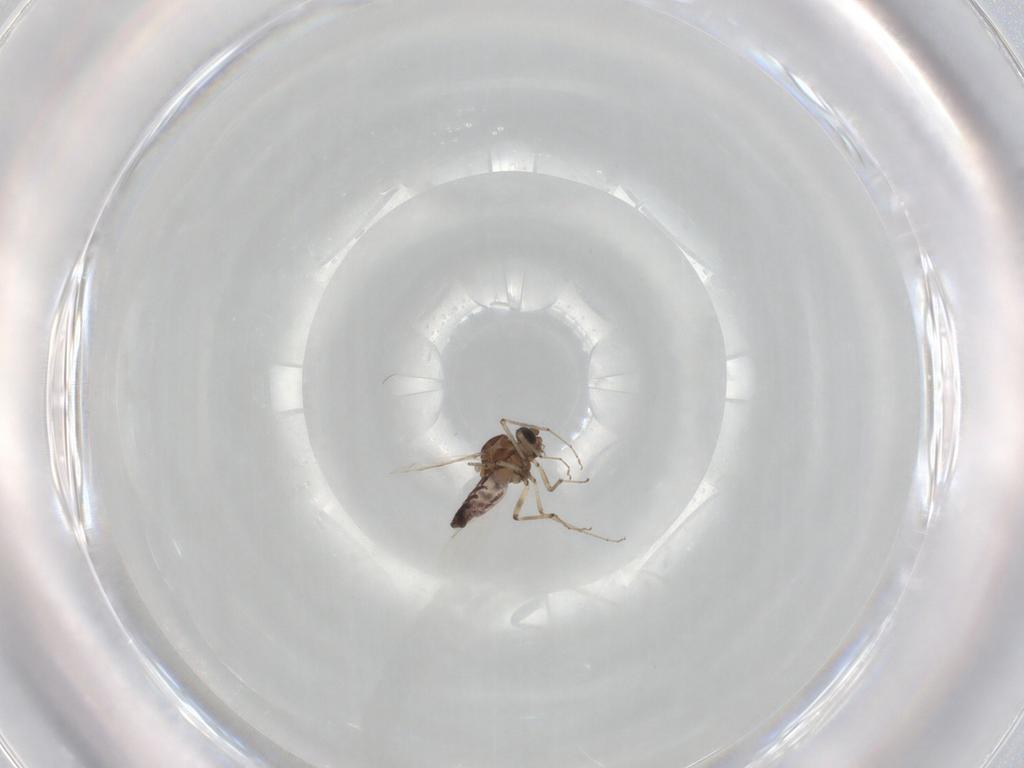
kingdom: Animalia
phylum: Arthropoda
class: Insecta
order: Diptera
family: Ceratopogonidae
